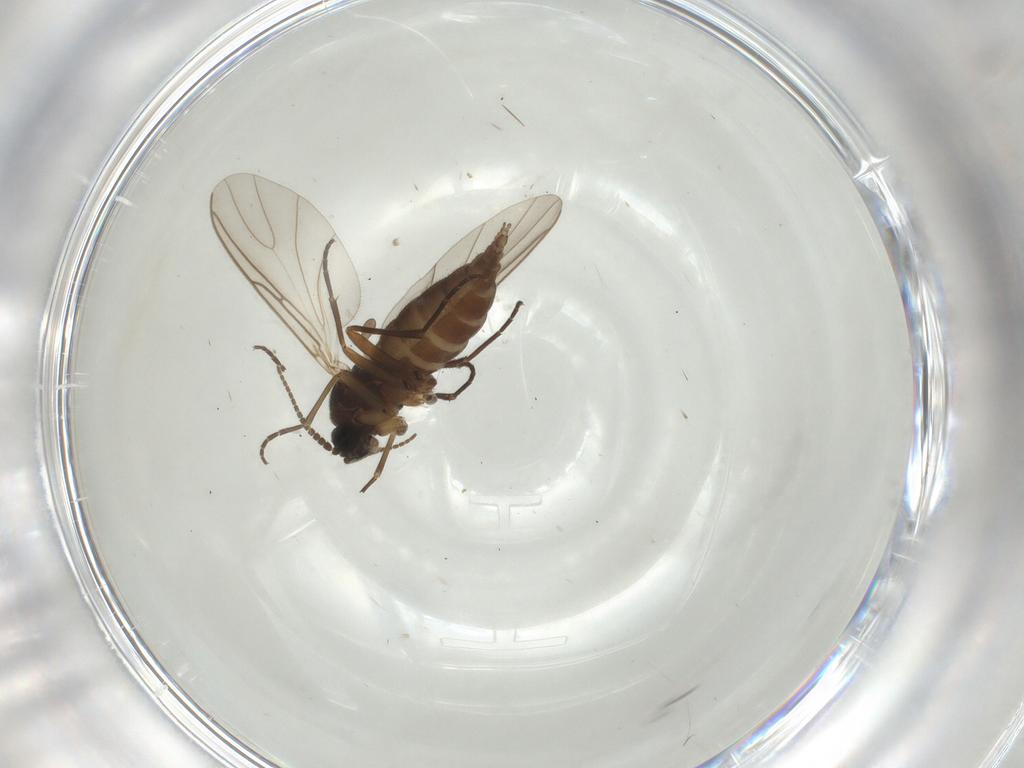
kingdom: Animalia
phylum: Arthropoda
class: Insecta
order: Diptera
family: Sciaridae
